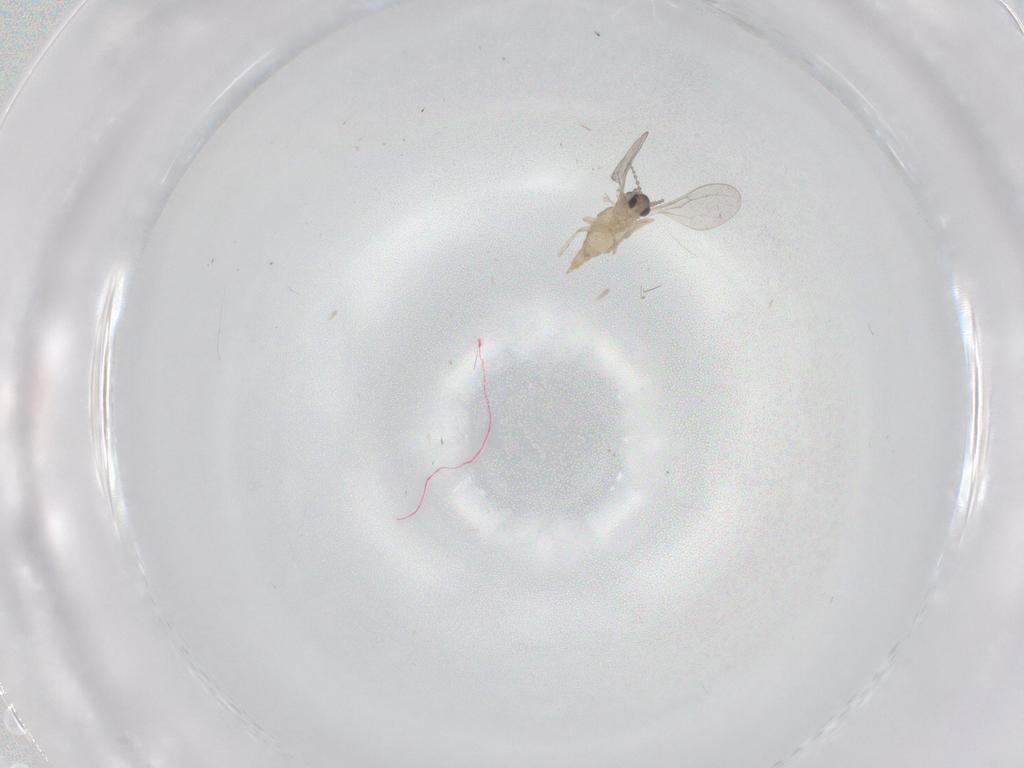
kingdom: Animalia
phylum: Arthropoda
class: Insecta
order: Diptera
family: Cecidomyiidae
